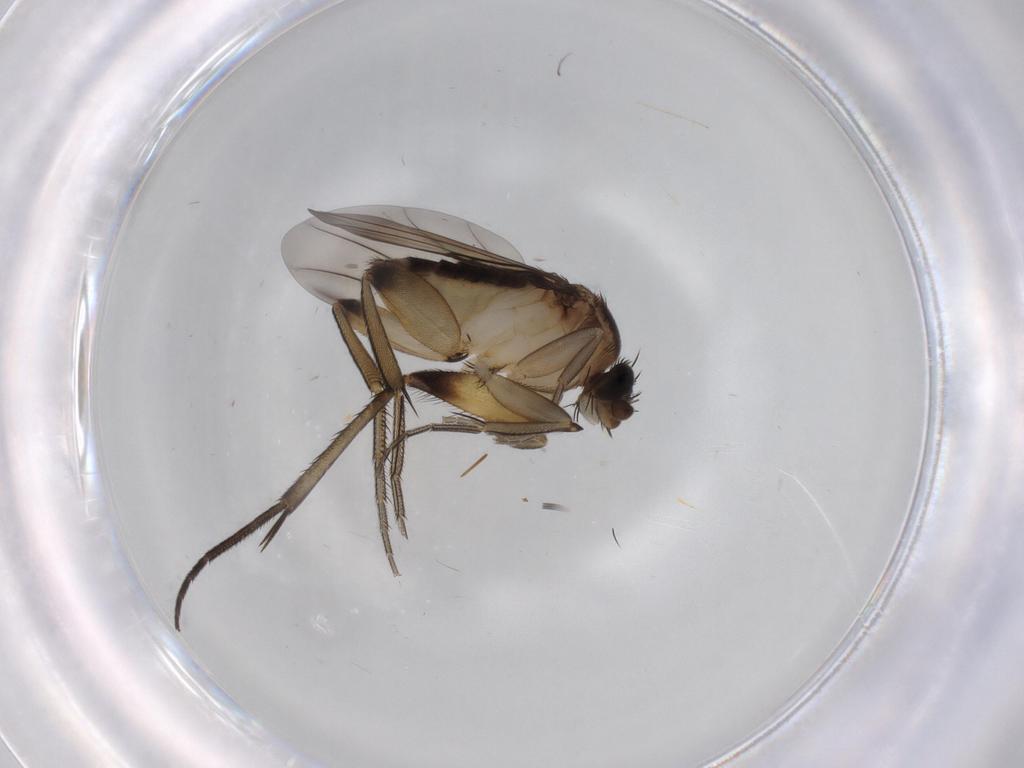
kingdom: Animalia
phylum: Arthropoda
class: Insecta
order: Diptera
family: Phoridae
